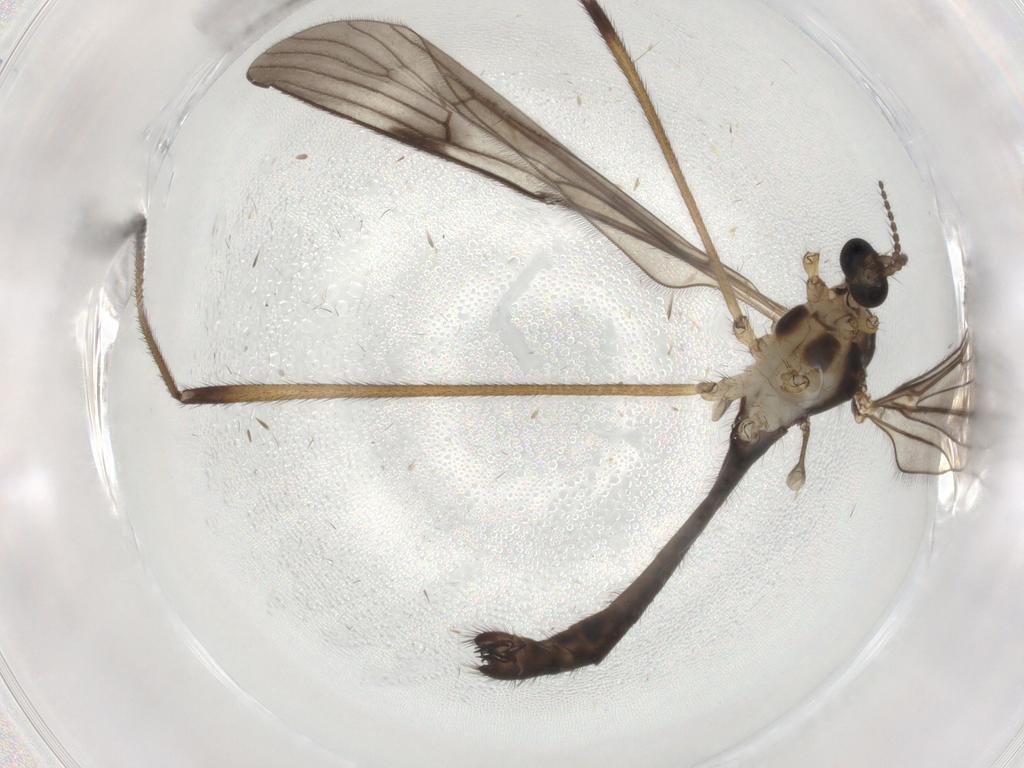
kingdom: Animalia
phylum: Arthropoda
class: Insecta
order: Diptera
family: Limoniidae
